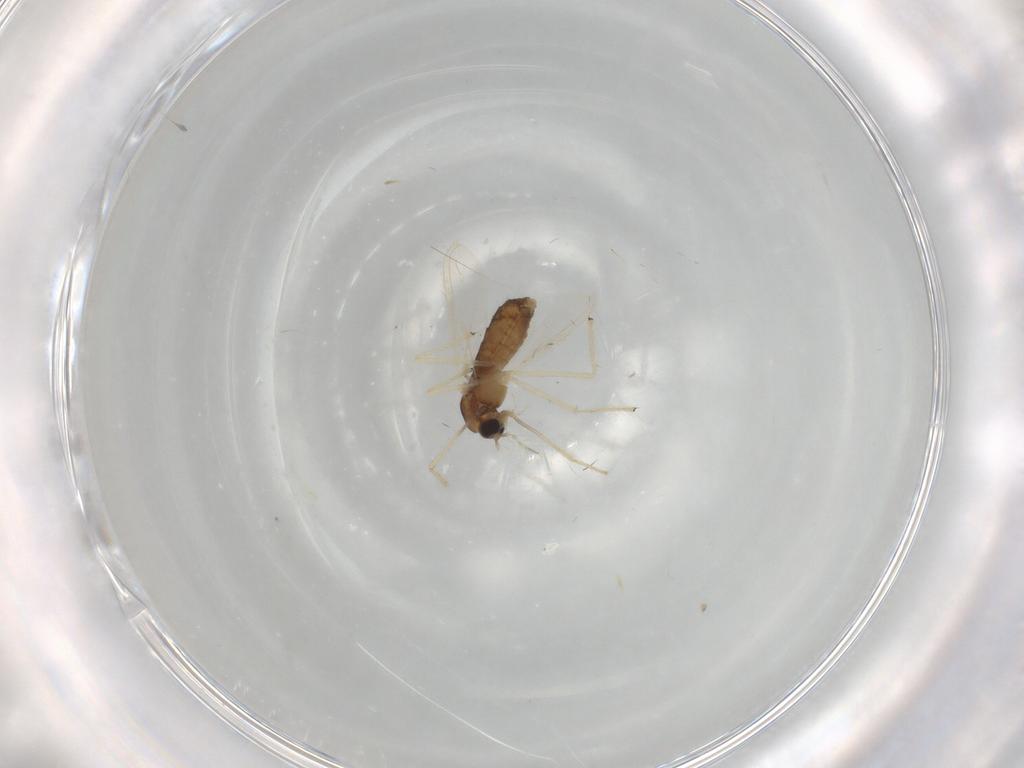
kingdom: Animalia
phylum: Arthropoda
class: Insecta
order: Diptera
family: Chironomidae
